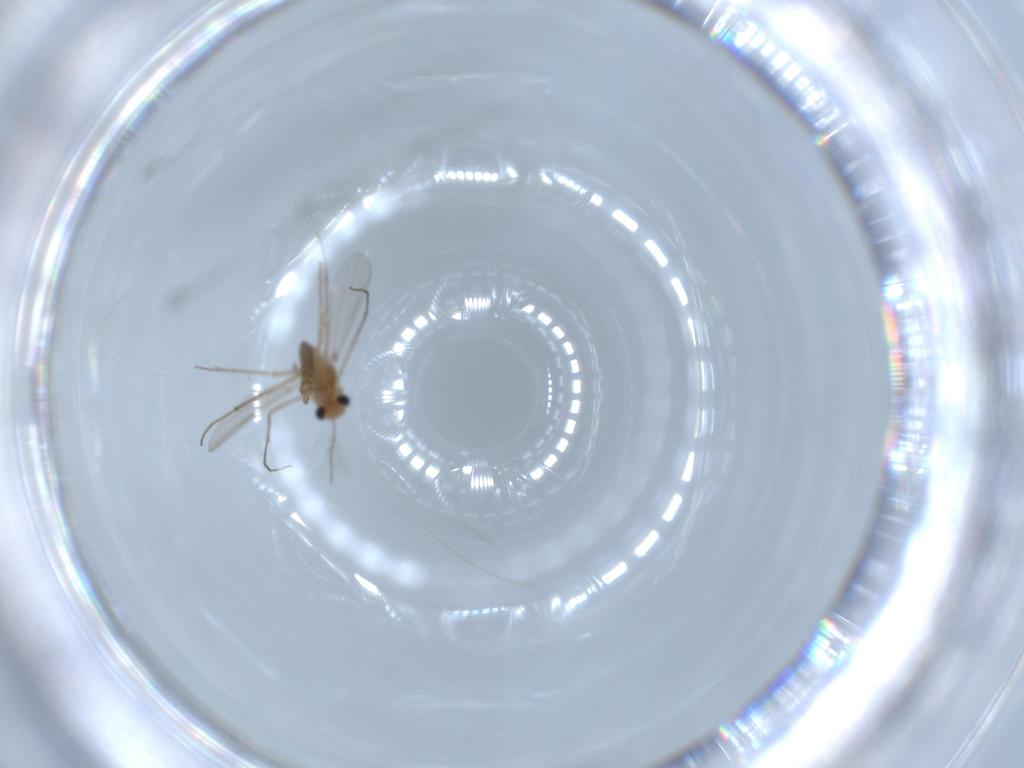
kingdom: Animalia
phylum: Arthropoda
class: Insecta
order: Diptera
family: Chironomidae
